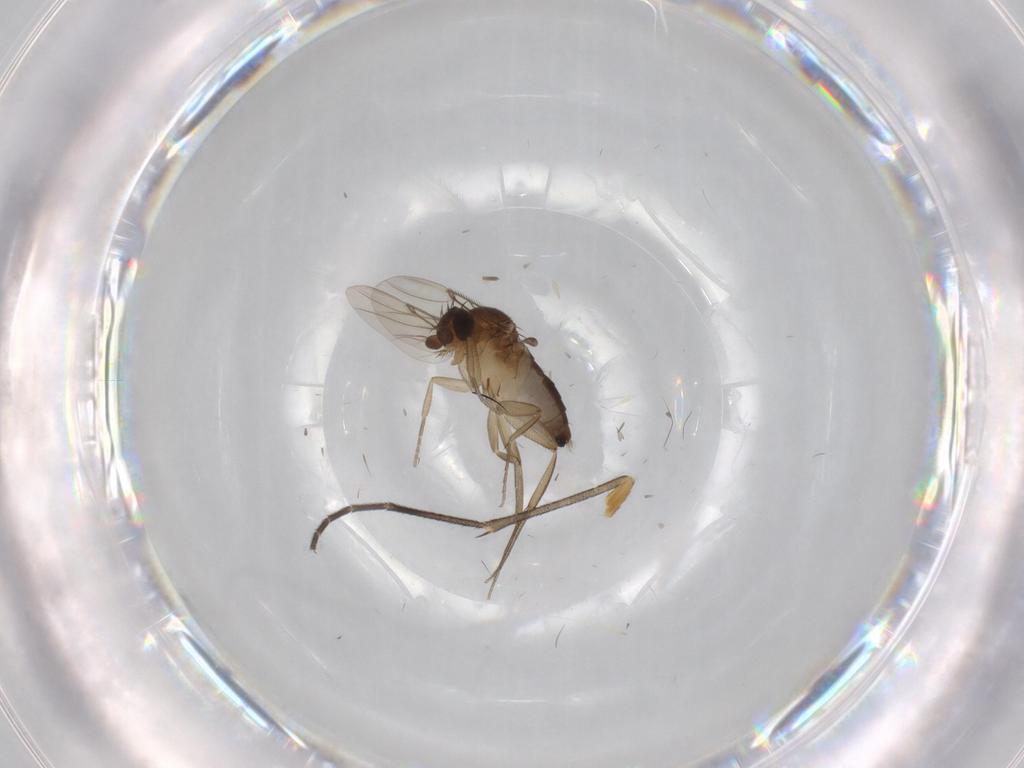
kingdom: Animalia
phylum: Arthropoda
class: Insecta
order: Diptera
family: Phoridae
